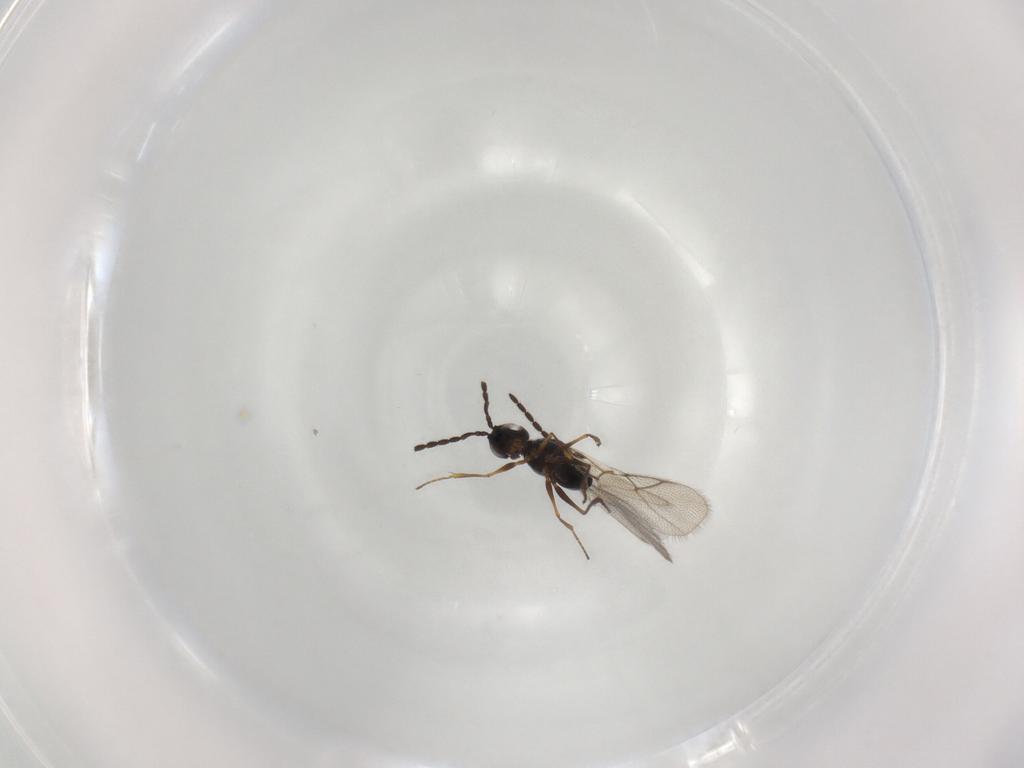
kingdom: Animalia
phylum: Arthropoda
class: Insecta
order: Hymenoptera
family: Figitidae
